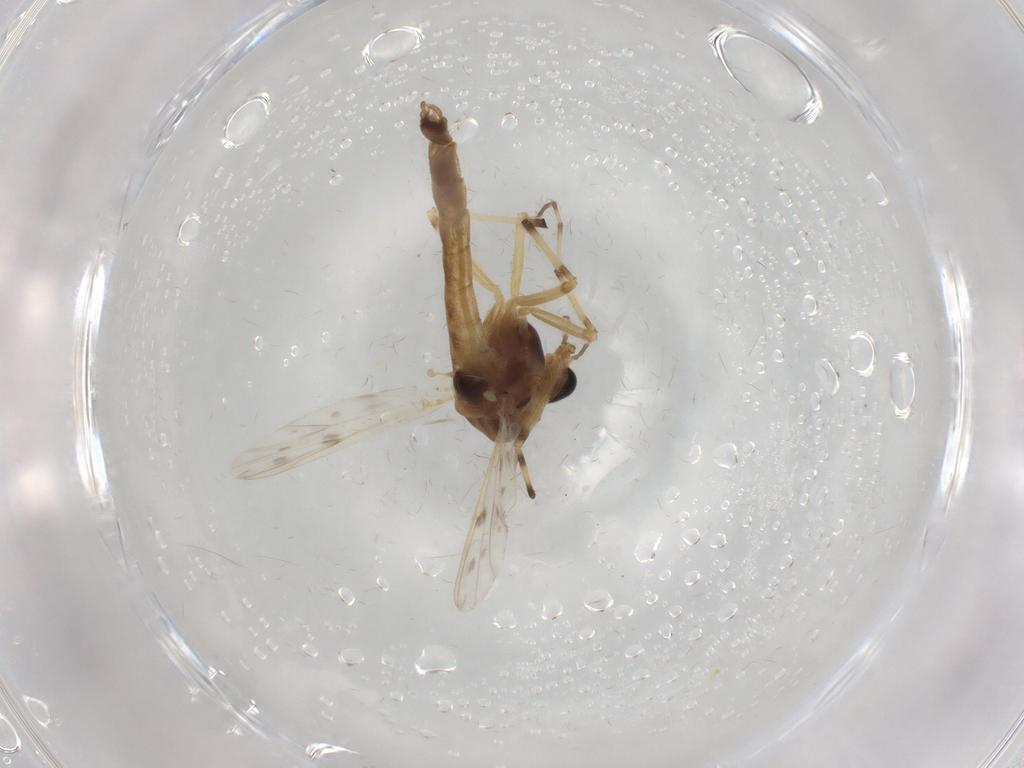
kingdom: Animalia
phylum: Arthropoda
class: Insecta
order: Diptera
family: Chironomidae
